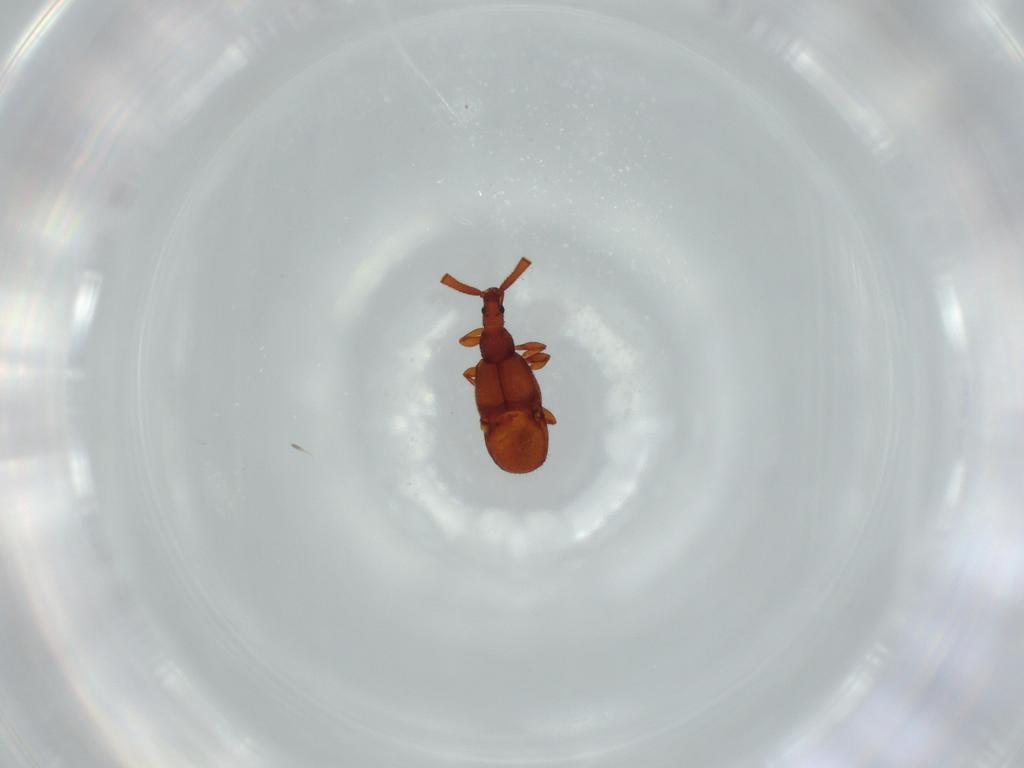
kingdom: Animalia
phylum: Arthropoda
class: Insecta
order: Coleoptera
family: Staphylinidae
